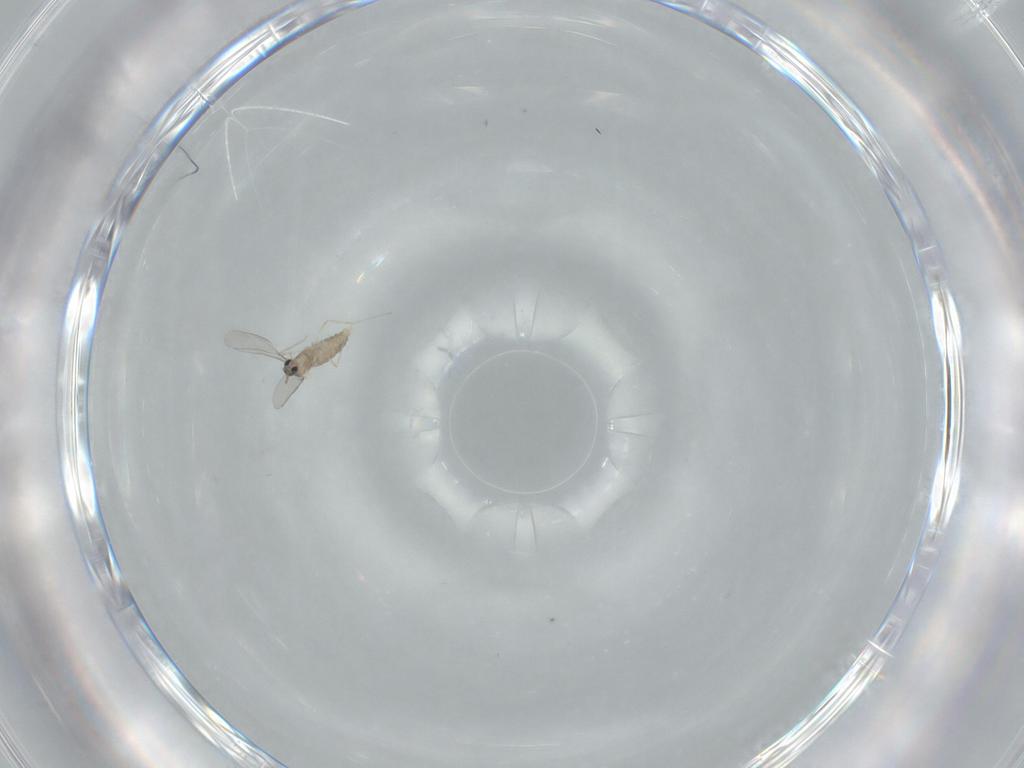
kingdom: Animalia
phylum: Arthropoda
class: Insecta
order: Diptera
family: Cecidomyiidae
